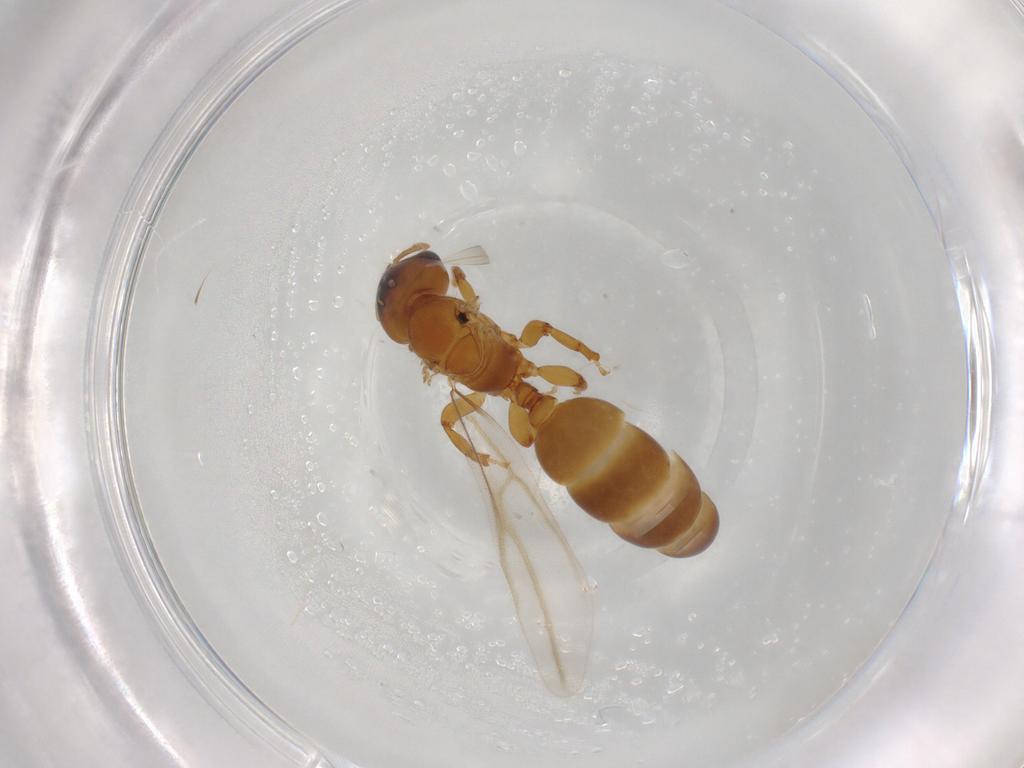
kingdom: Animalia
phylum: Arthropoda
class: Insecta
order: Hymenoptera
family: Formicidae
